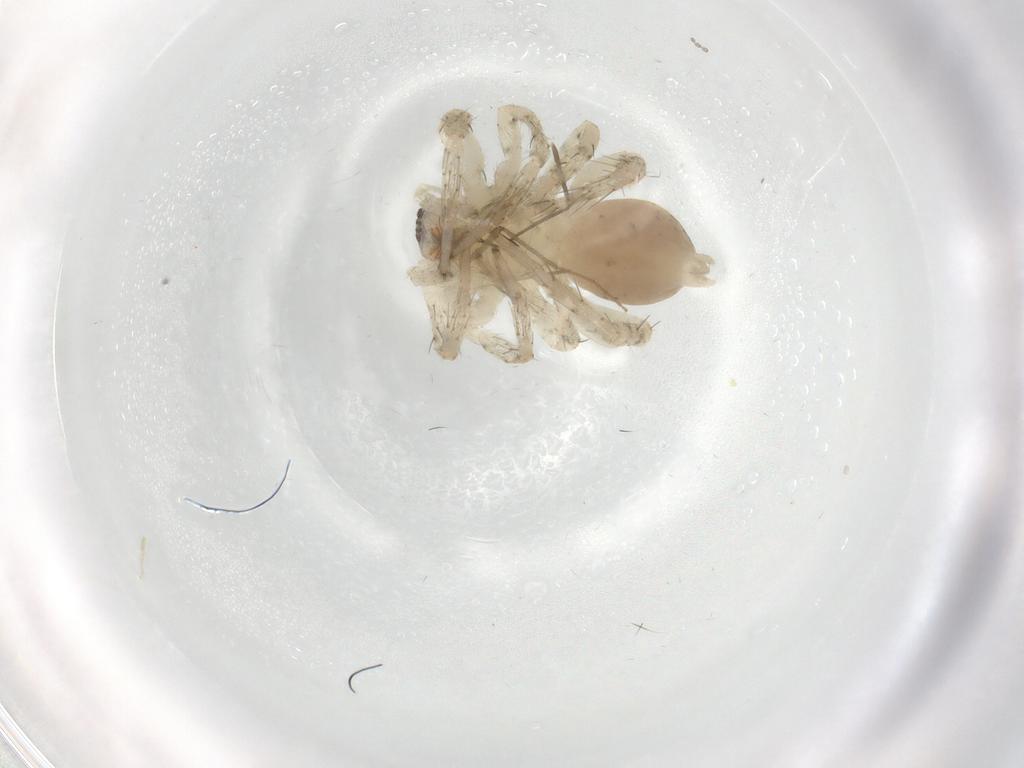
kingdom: Animalia
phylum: Arthropoda
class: Arachnida
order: Araneae
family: Anyphaenidae
